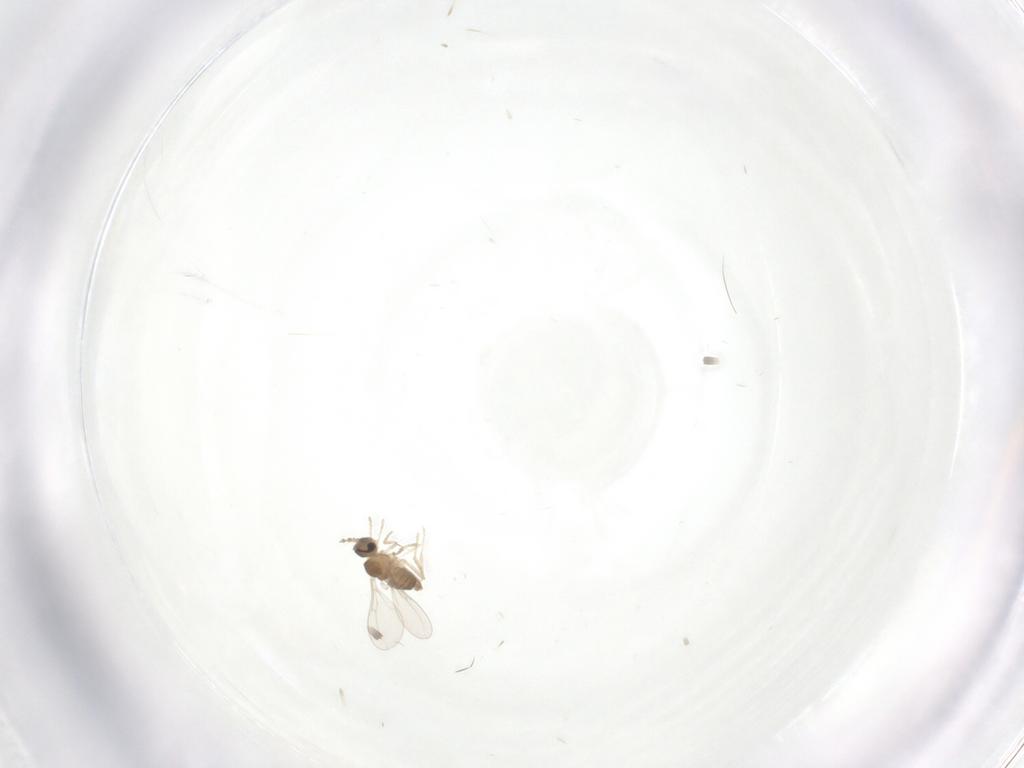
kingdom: Animalia
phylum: Arthropoda
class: Insecta
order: Diptera
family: Cecidomyiidae
